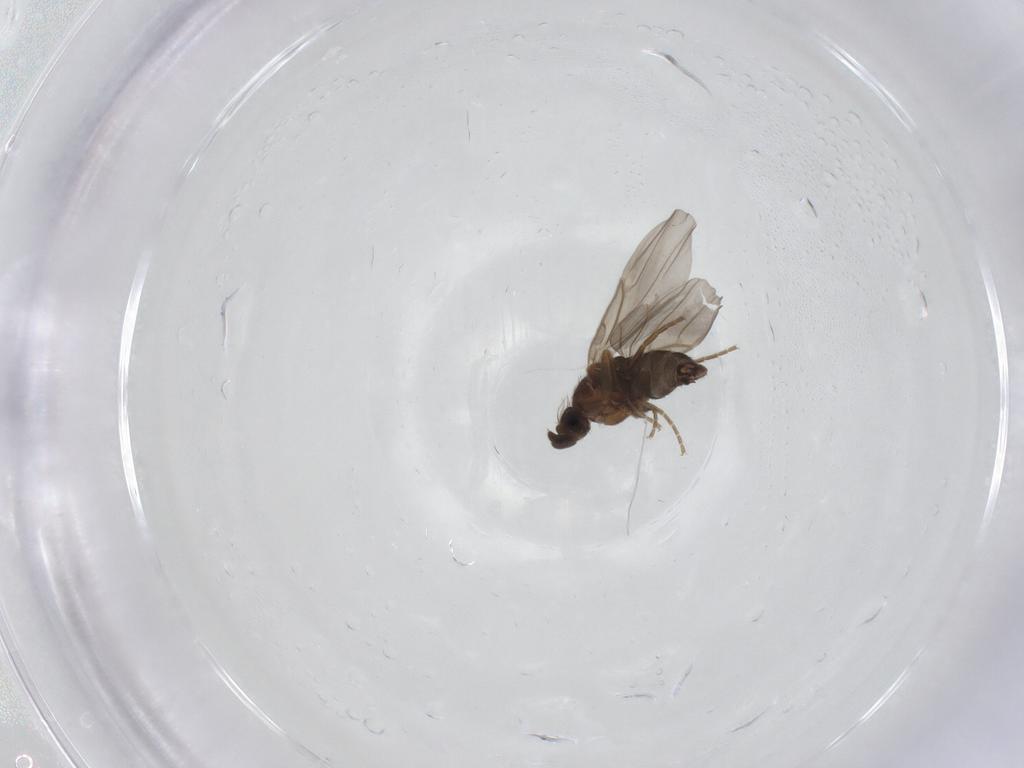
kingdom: Animalia
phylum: Arthropoda
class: Insecta
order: Diptera
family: Phoridae
